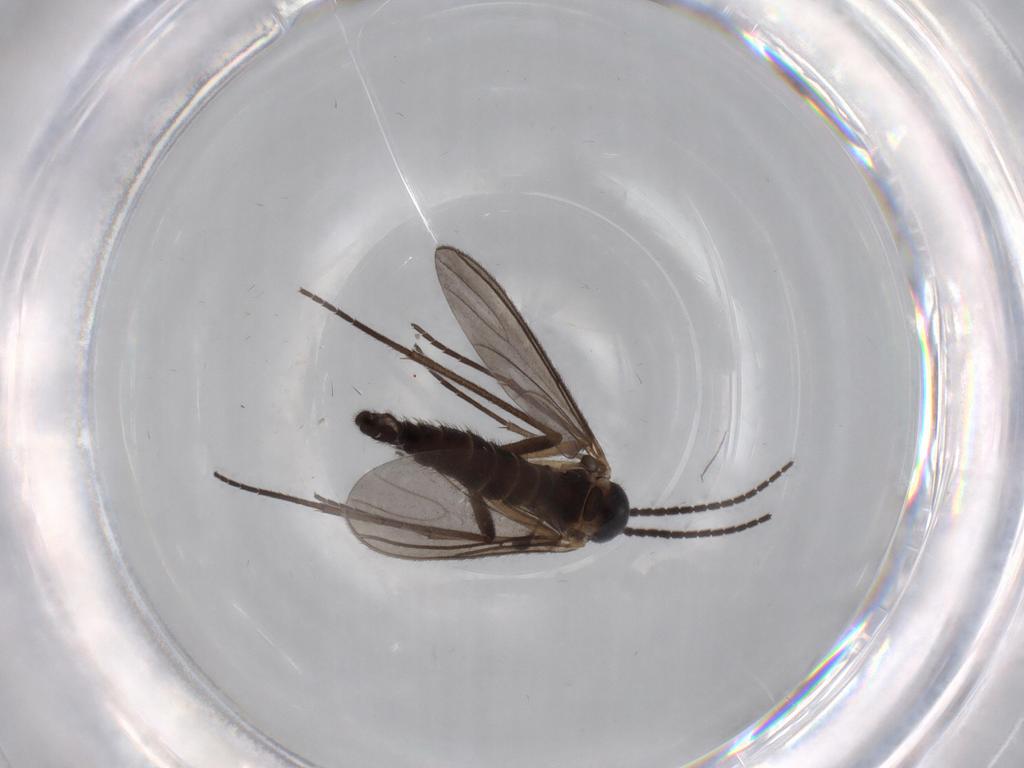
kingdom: Animalia
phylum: Arthropoda
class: Insecta
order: Diptera
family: Sciaridae
